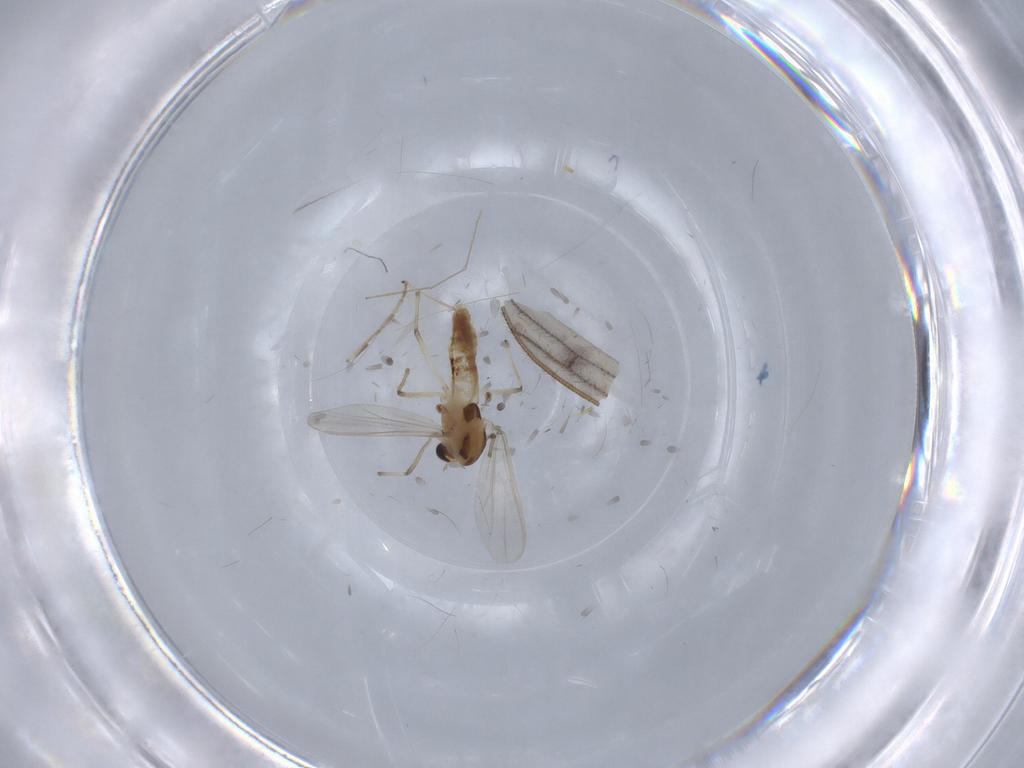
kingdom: Animalia
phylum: Arthropoda
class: Insecta
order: Diptera
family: Limoniidae
